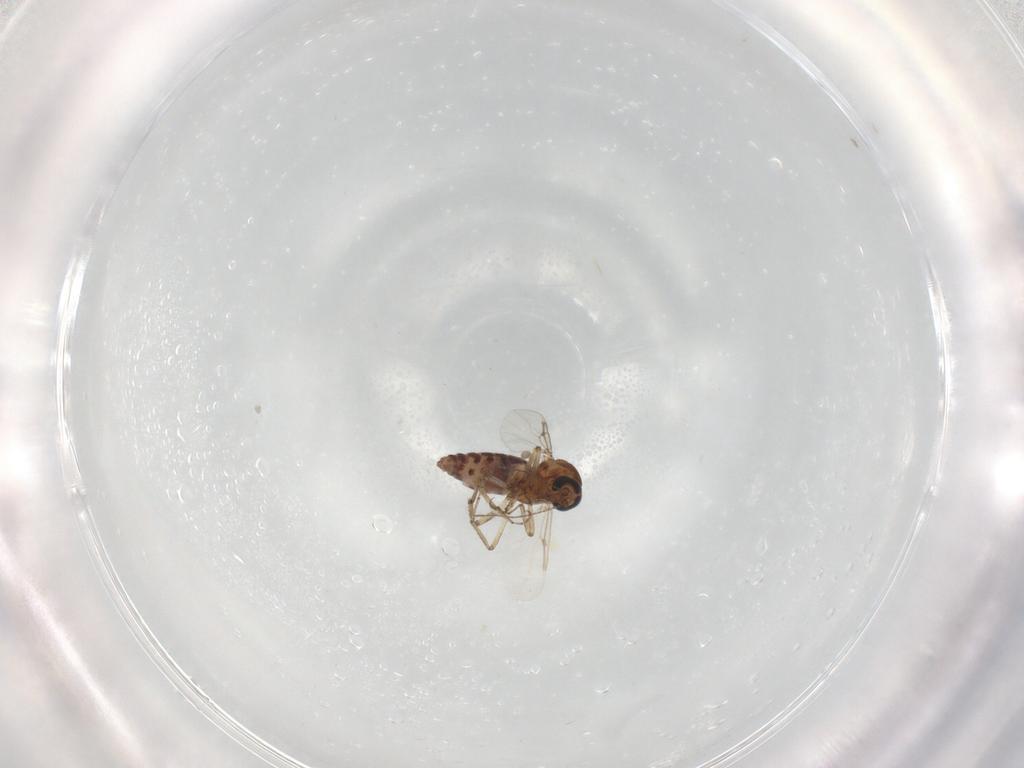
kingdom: Animalia
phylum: Arthropoda
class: Insecta
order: Diptera
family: Ceratopogonidae
